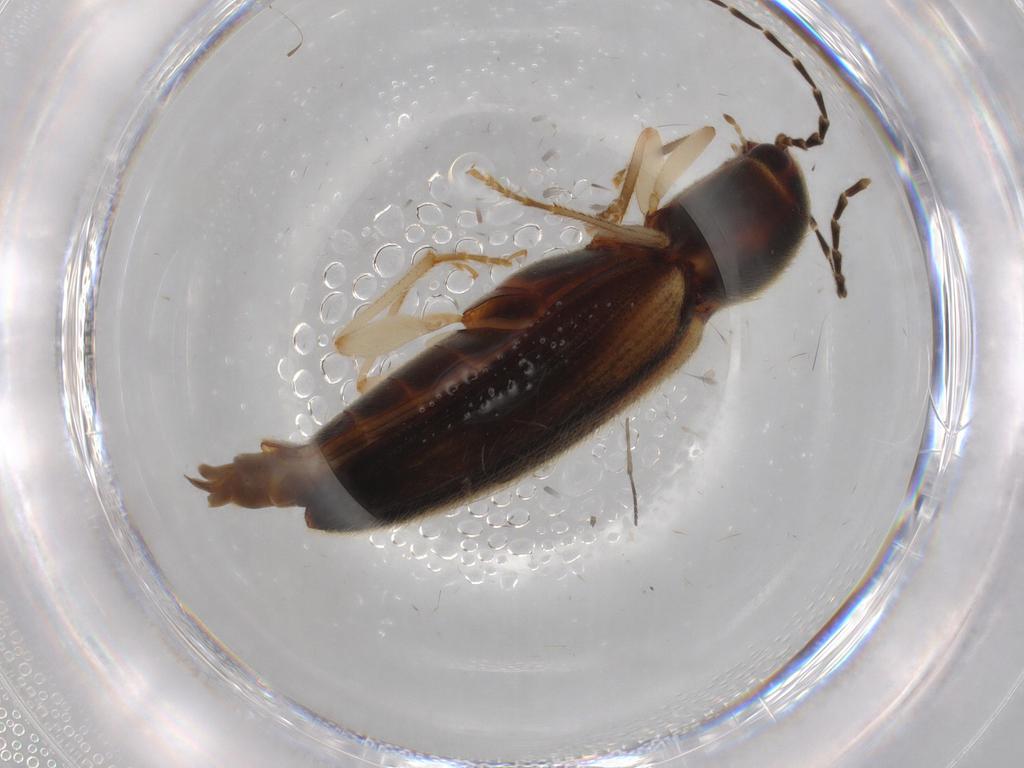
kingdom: Animalia
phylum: Arthropoda
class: Insecta
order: Coleoptera
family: Elateridae
